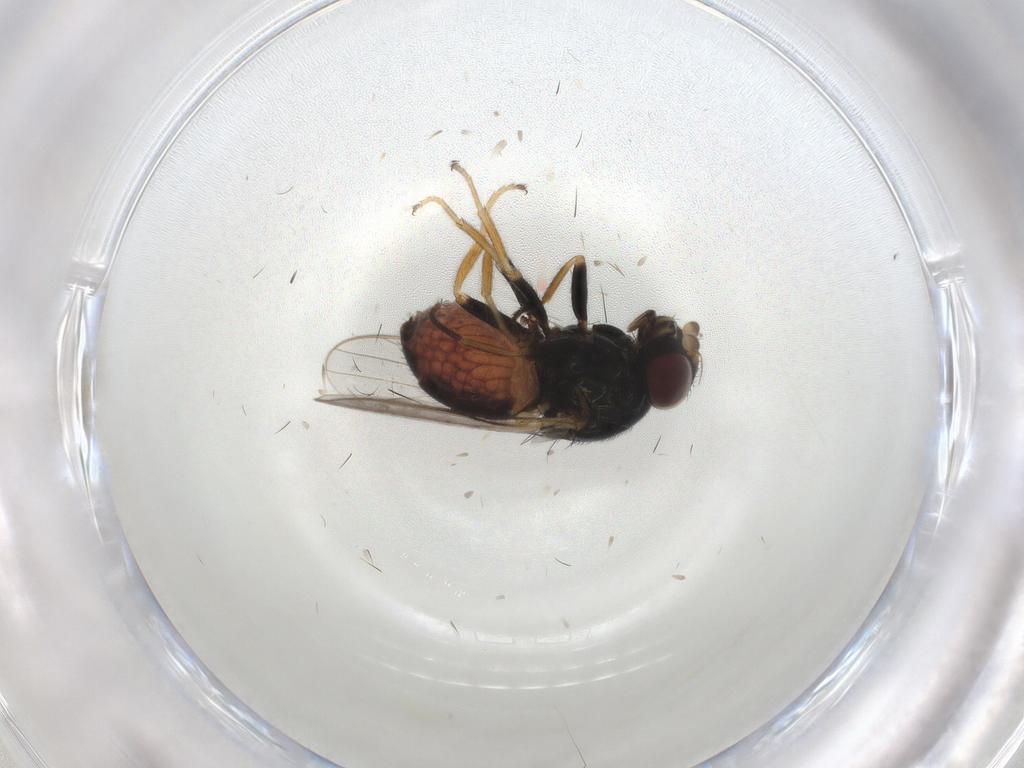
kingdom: Animalia
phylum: Arthropoda
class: Insecta
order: Diptera
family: Chloropidae
